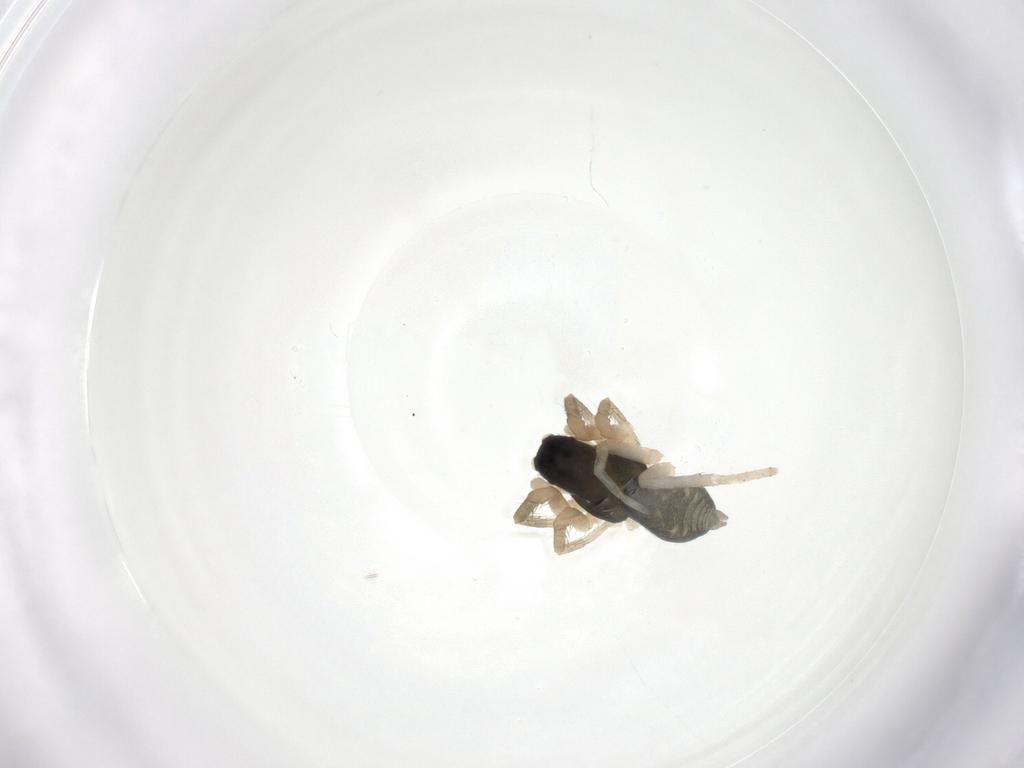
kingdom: Animalia
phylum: Arthropoda
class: Arachnida
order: Araneae
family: Lycosidae
